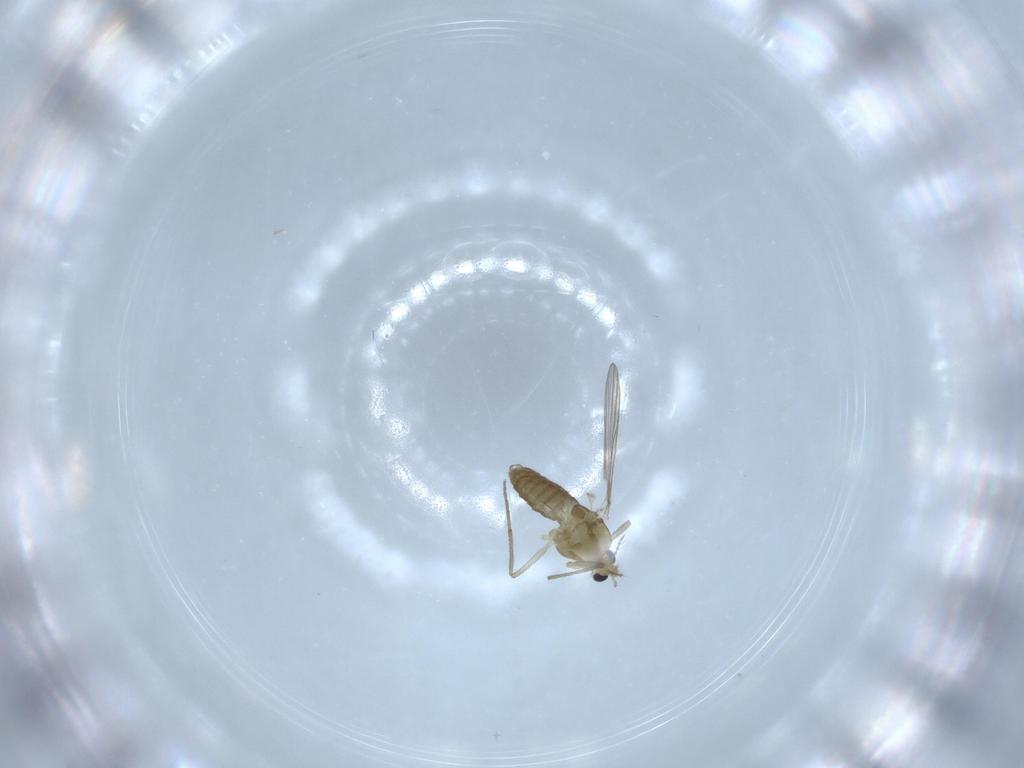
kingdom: Animalia
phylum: Arthropoda
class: Insecta
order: Diptera
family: Chironomidae
